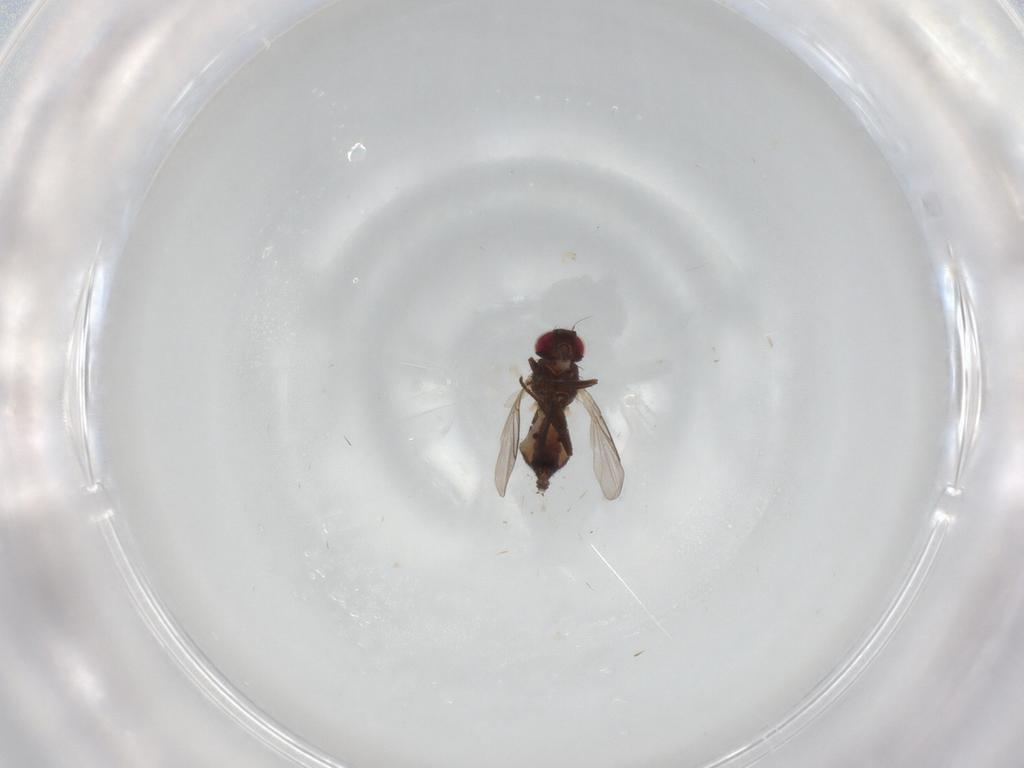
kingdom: Animalia
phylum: Arthropoda
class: Insecta
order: Diptera
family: Agromyzidae
